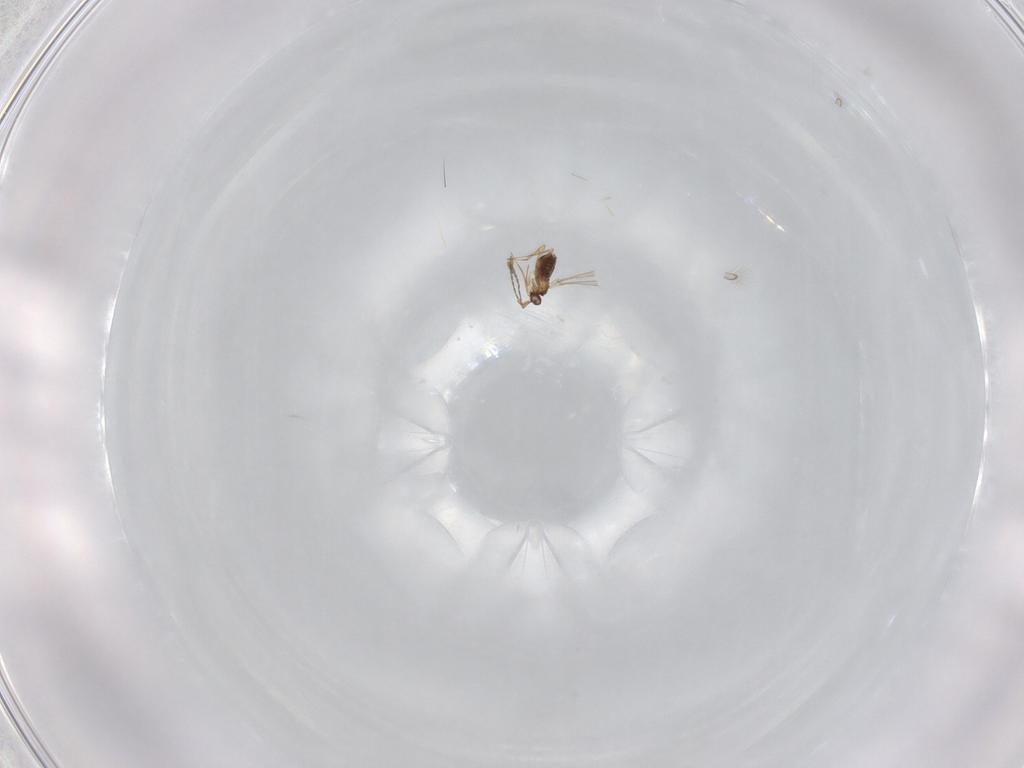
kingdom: Animalia
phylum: Arthropoda
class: Insecta
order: Hymenoptera
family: Mymaridae
